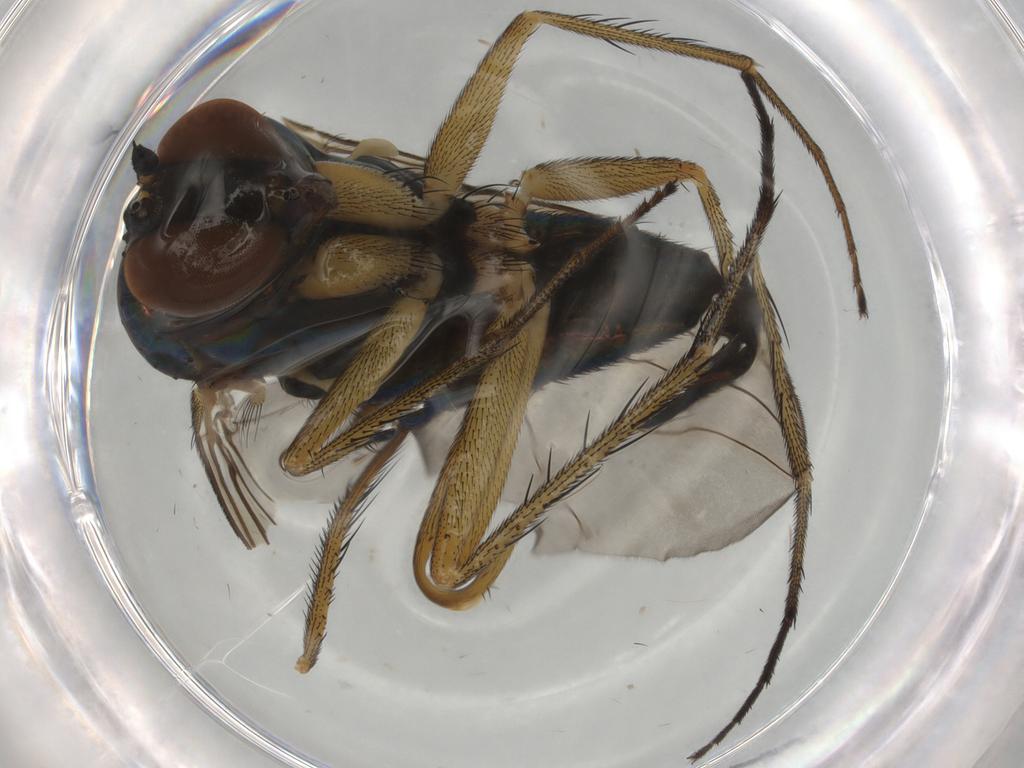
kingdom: Animalia
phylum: Arthropoda
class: Insecta
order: Diptera
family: Dolichopodidae
